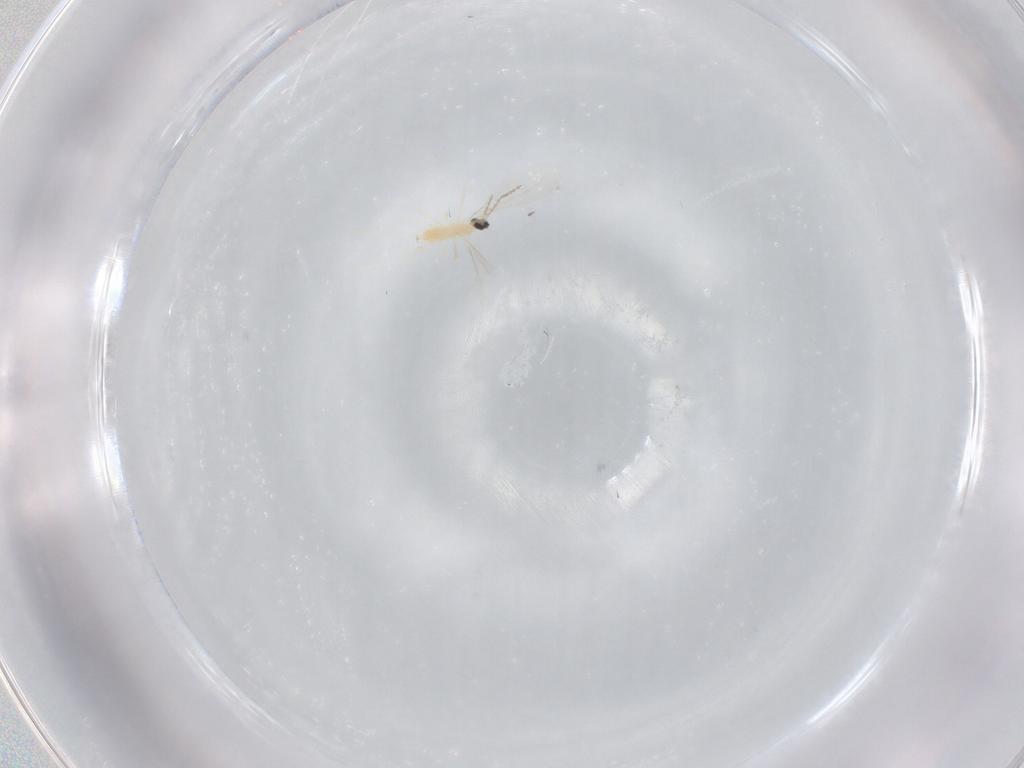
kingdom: Animalia
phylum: Arthropoda
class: Insecta
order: Diptera
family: Cecidomyiidae
